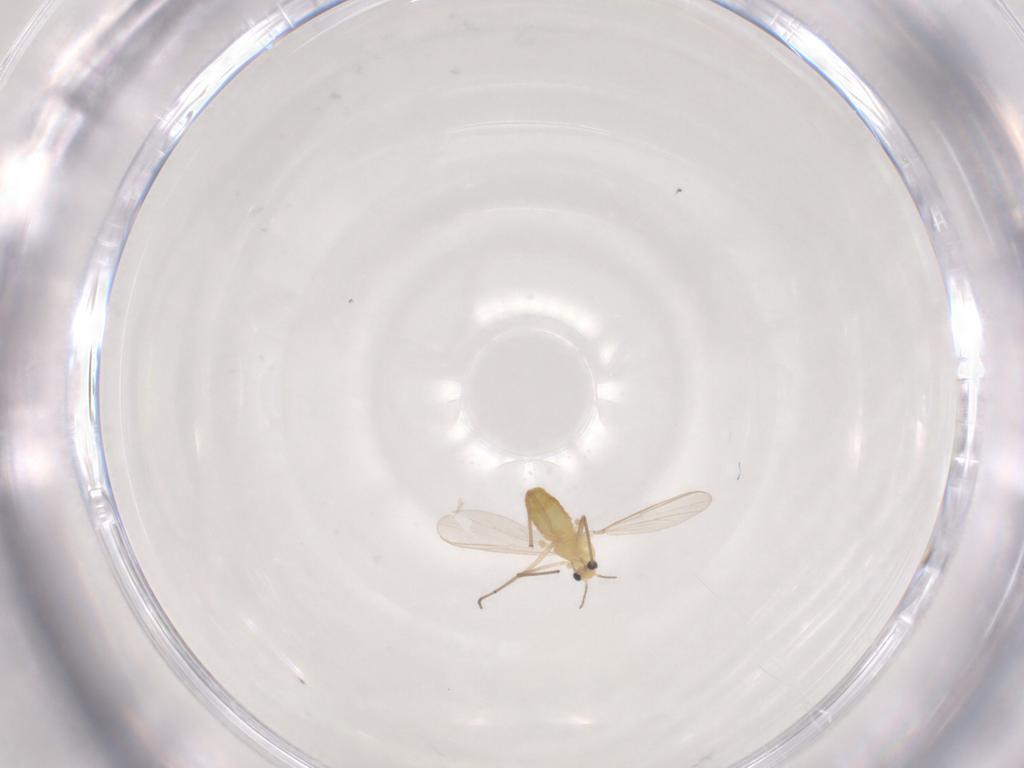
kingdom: Animalia
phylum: Arthropoda
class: Insecta
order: Diptera
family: Chironomidae
